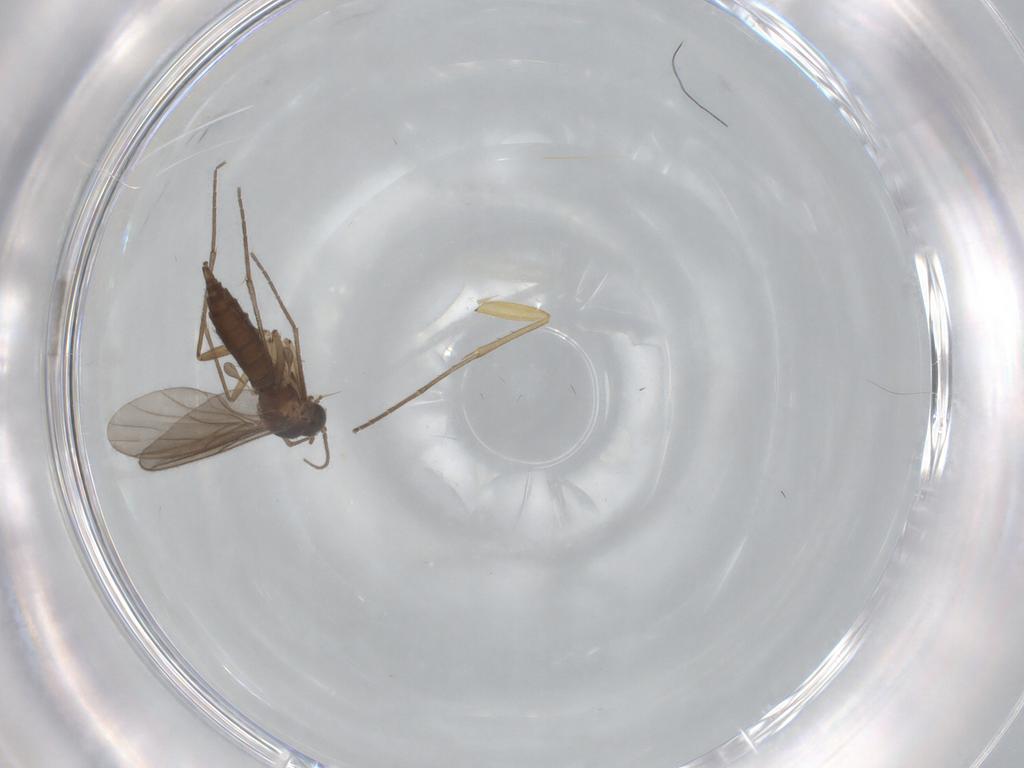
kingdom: Animalia
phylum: Arthropoda
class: Insecta
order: Diptera
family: Sciaridae
